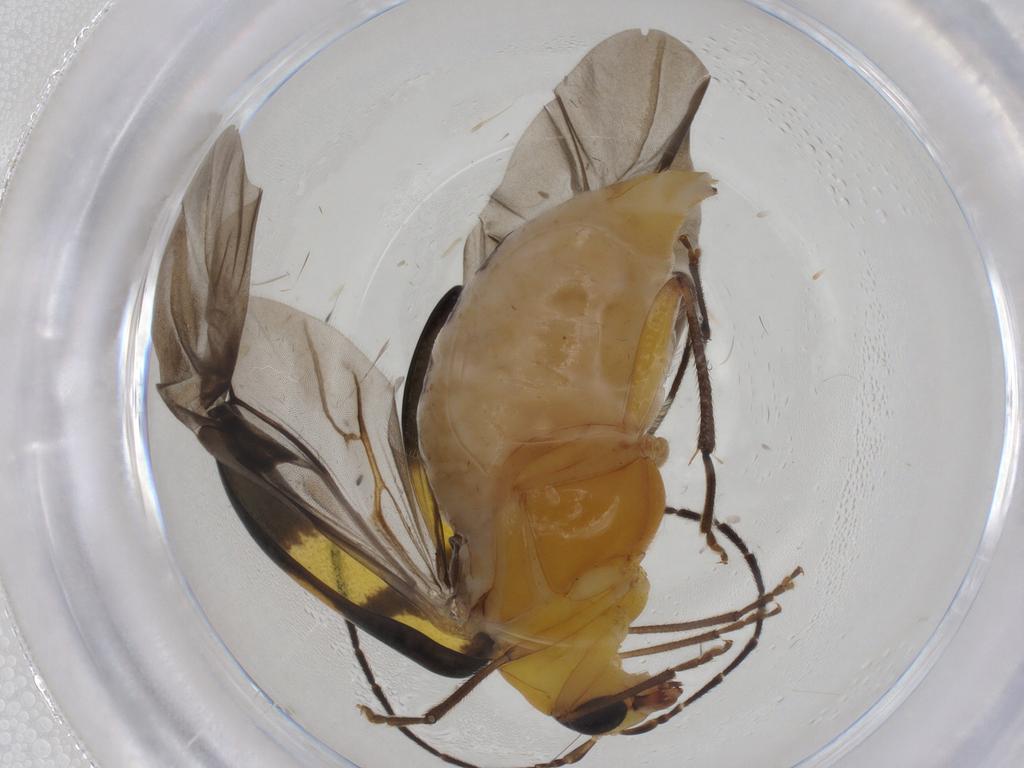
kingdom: Animalia
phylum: Arthropoda
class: Insecta
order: Coleoptera
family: Chrysomelidae
